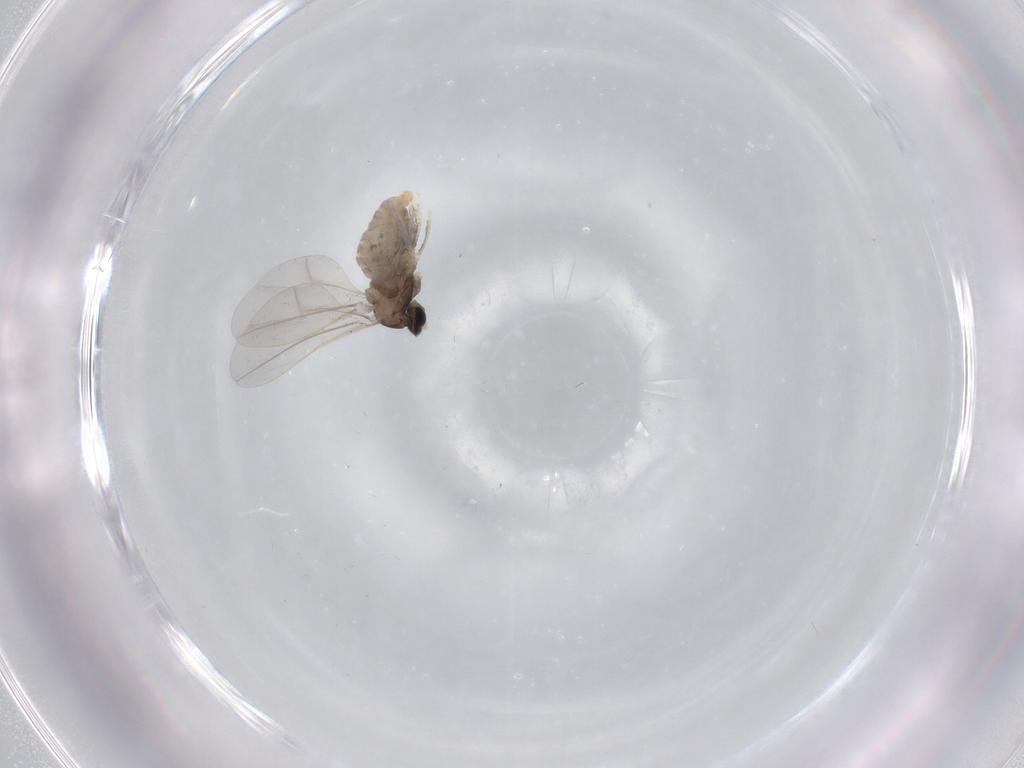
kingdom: Animalia
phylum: Arthropoda
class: Insecta
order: Diptera
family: Cecidomyiidae
